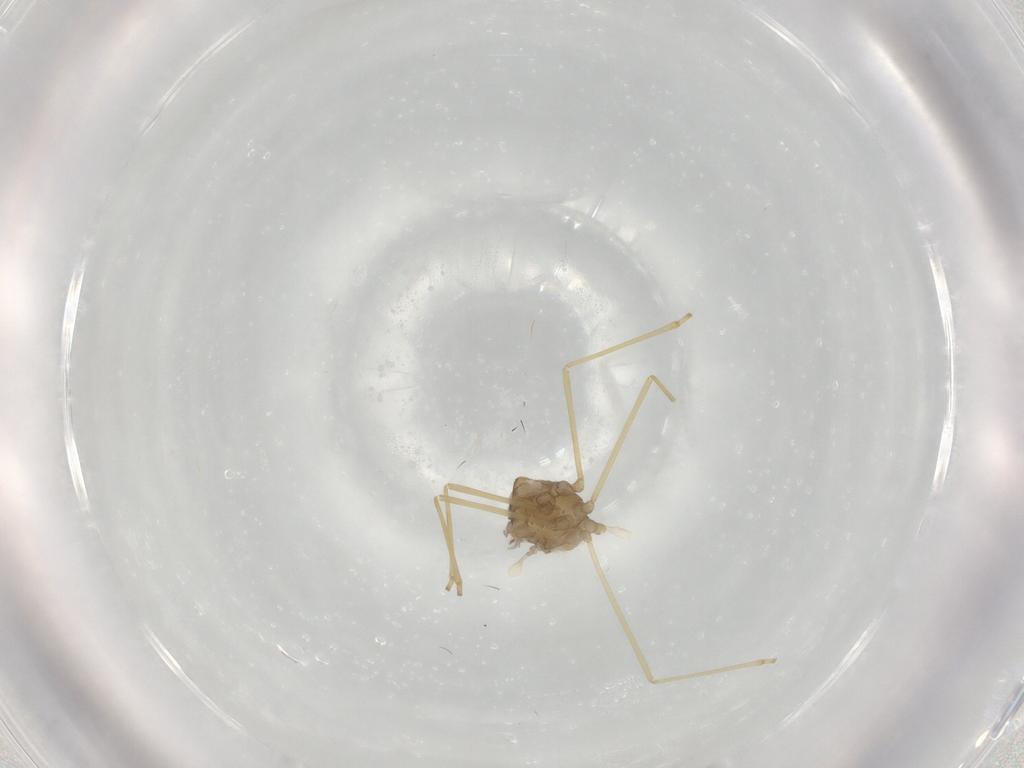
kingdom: Animalia
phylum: Arthropoda
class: Insecta
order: Diptera
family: Cecidomyiidae
